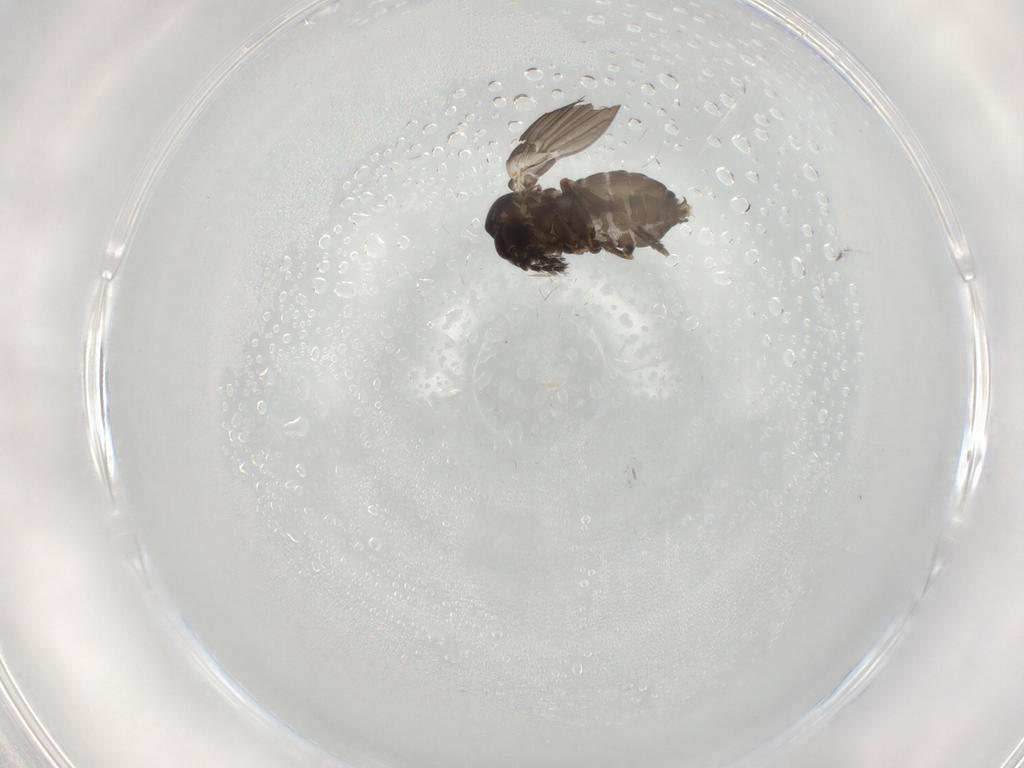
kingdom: Animalia
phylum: Arthropoda
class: Insecta
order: Diptera
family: Psychodidae
